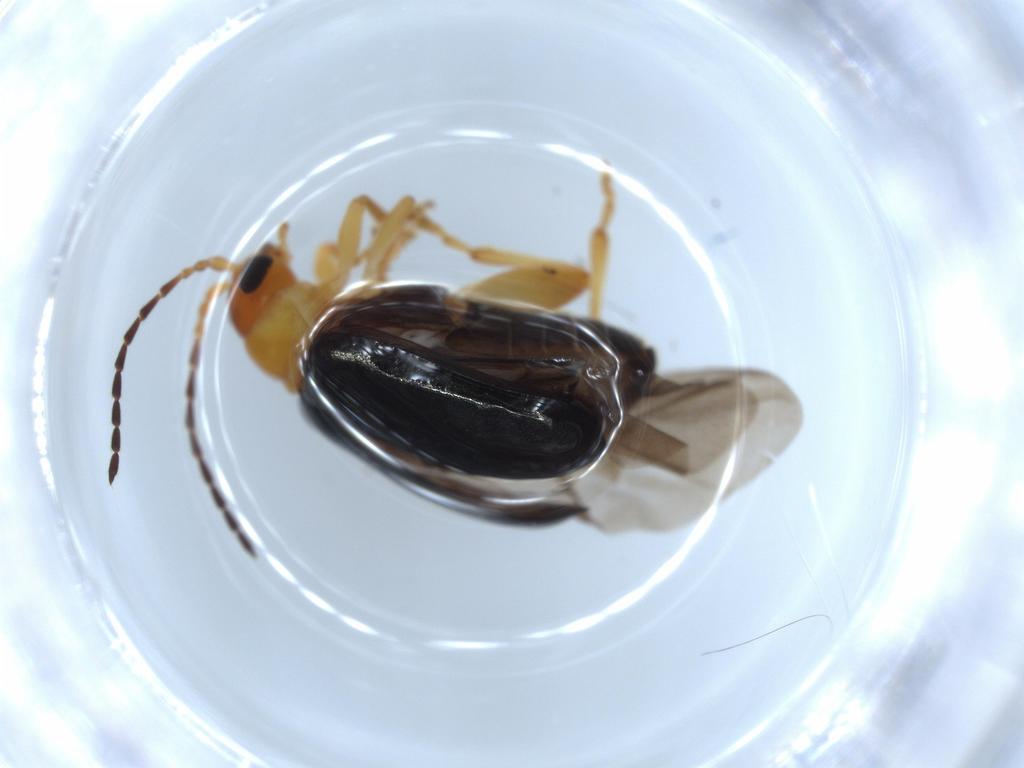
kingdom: Animalia
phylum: Arthropoda
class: Insecta
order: Coleoptera
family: Chrysomelidae
